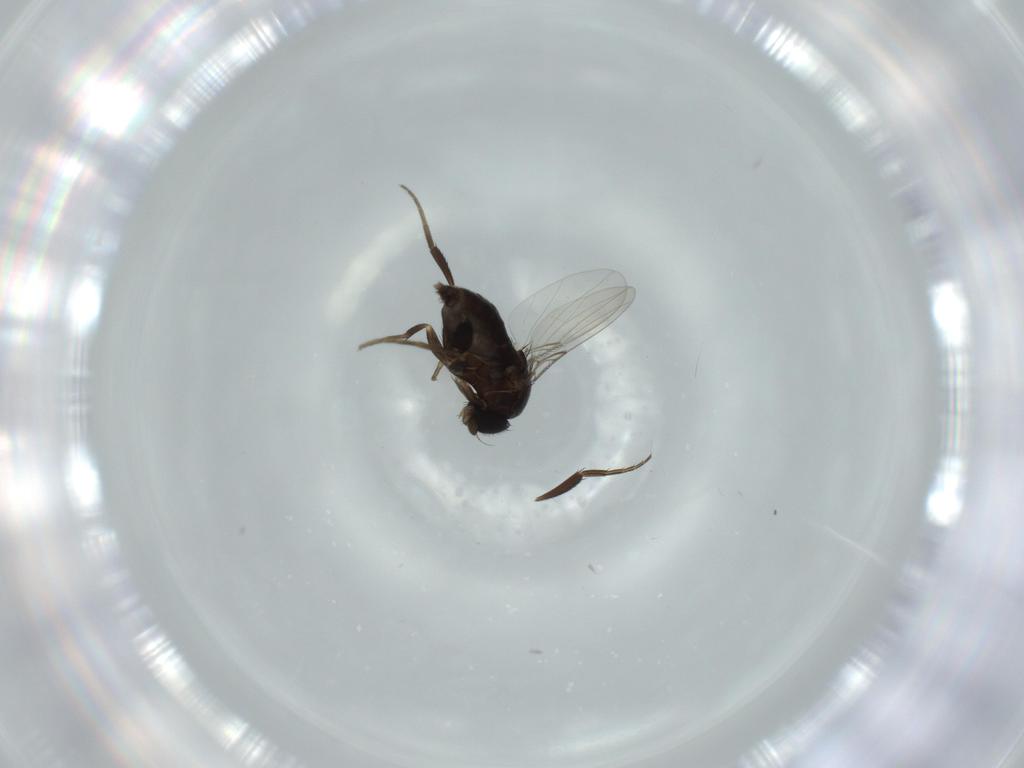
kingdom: Animalia
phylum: Arthropoda
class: Insecta
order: Diptera
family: Phoridae
